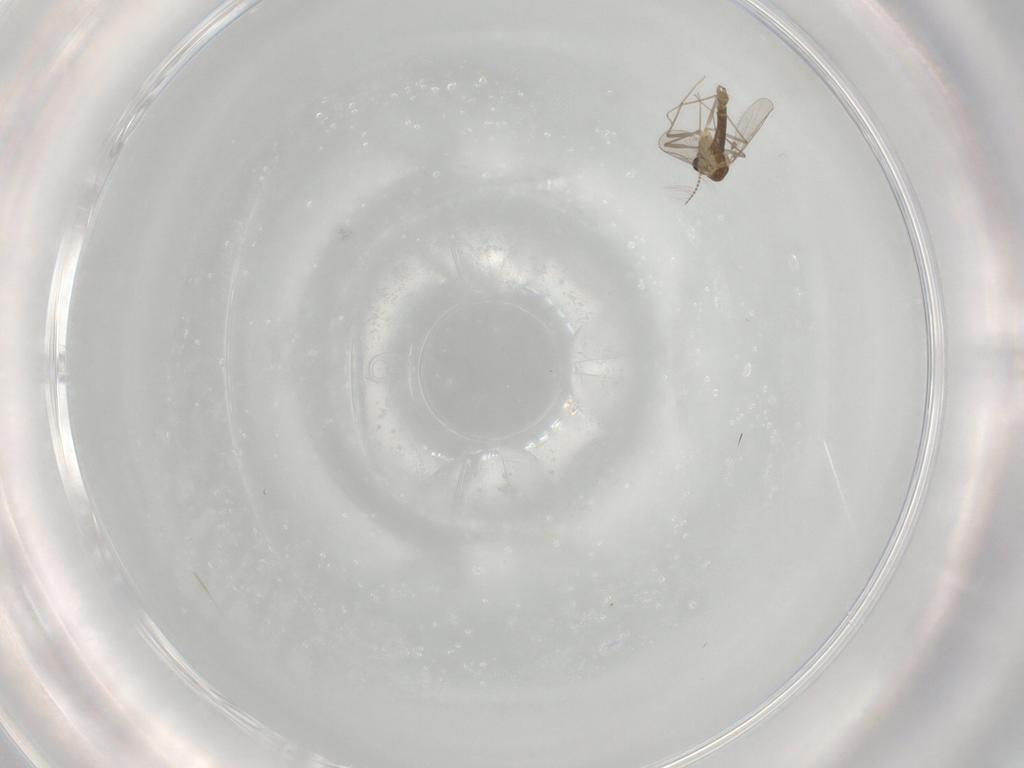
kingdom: Animalia
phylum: Arthropoda
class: Insecta
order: Diptera
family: Chironomidae
